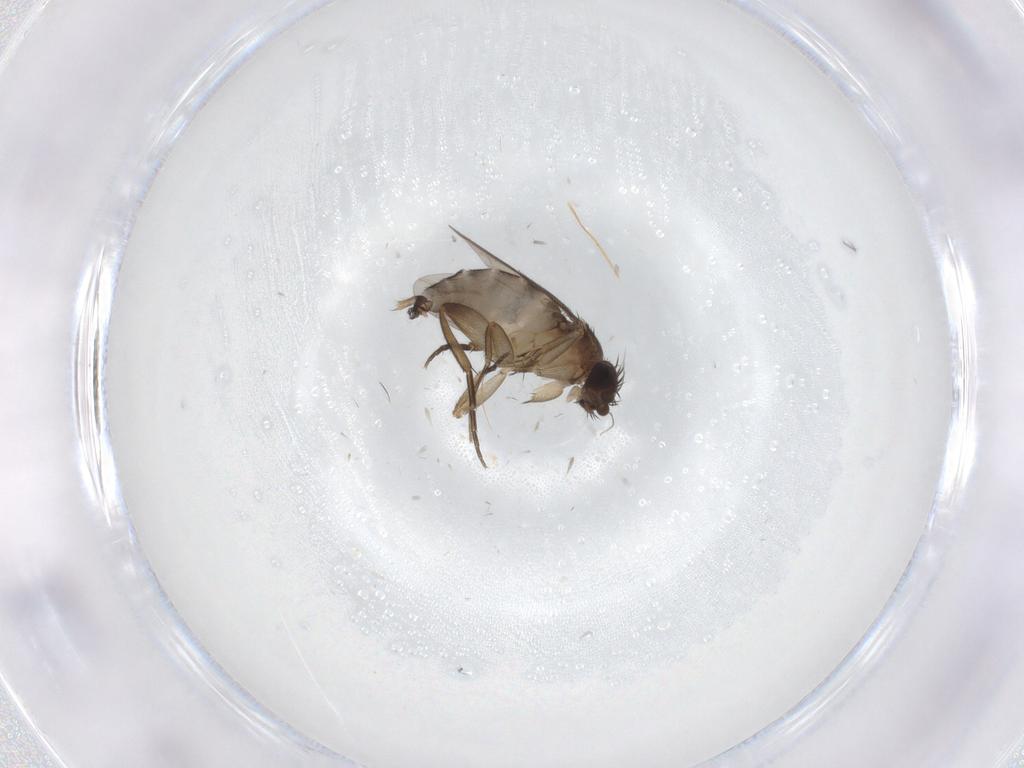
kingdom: Animalia
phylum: Arthropoda
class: Insecta
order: Diptera
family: Phoridae
